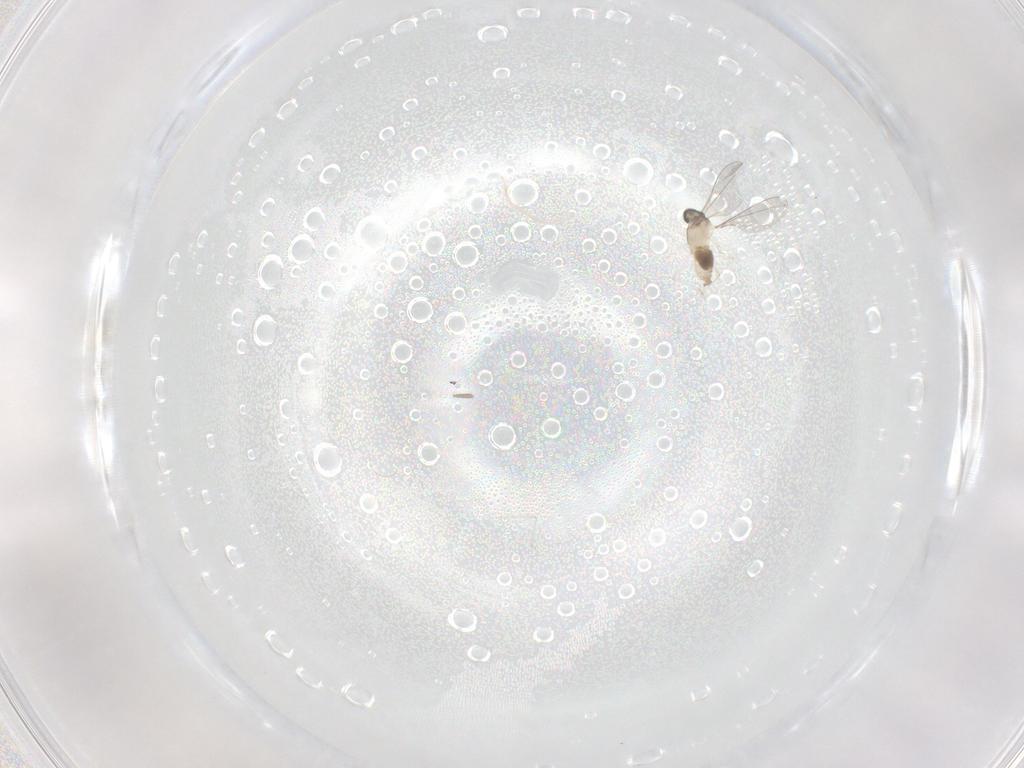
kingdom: Animalia
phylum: Arthropoda
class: Insecta
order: Diptera
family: Cecidomyiidae
